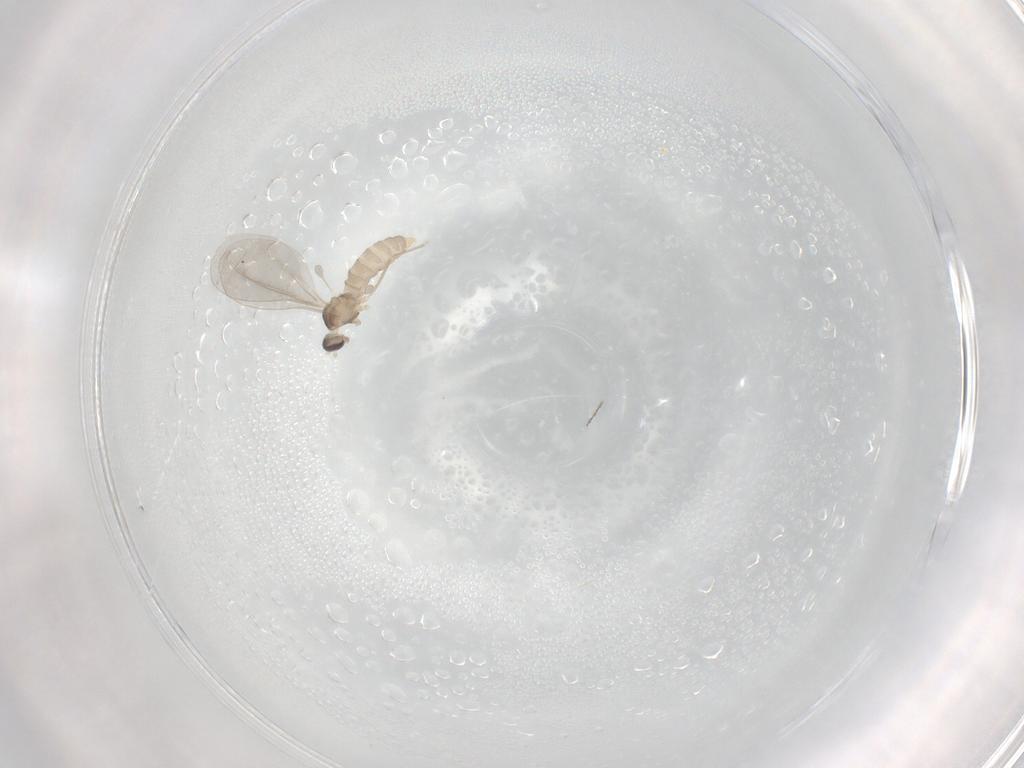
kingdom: Animalia
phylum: Arthropoda
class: Insecta
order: Diptera
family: Cecidomyiidae
